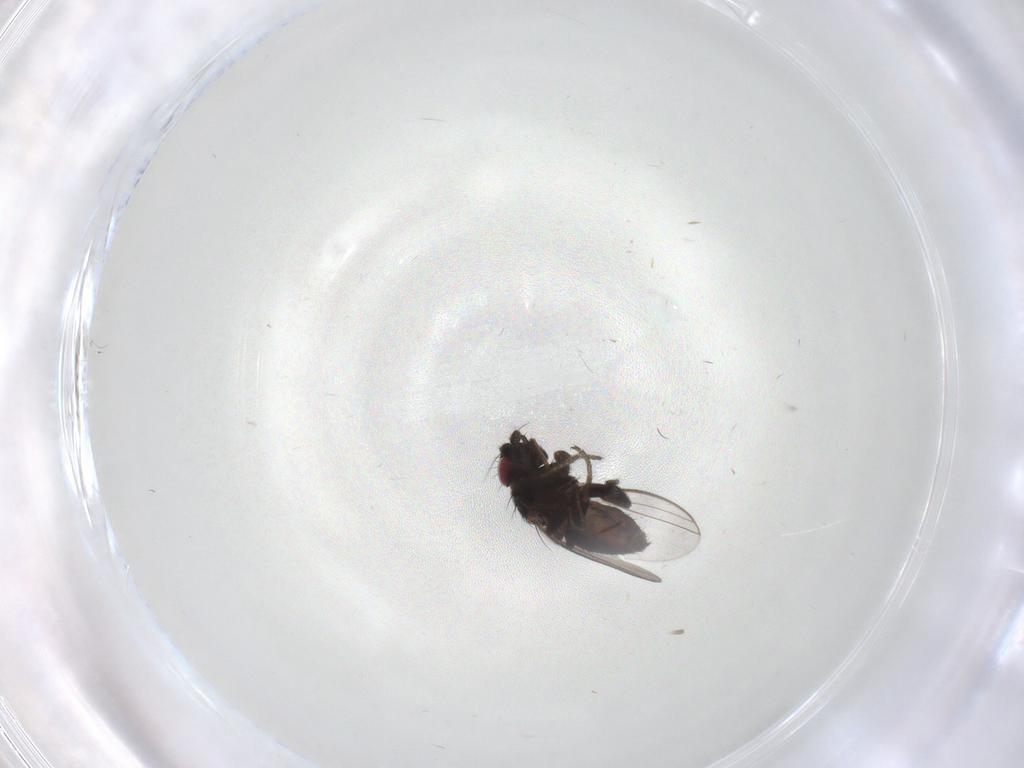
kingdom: Animalia
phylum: Arthropoda
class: Insecta
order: Diptera
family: Milichiidae
